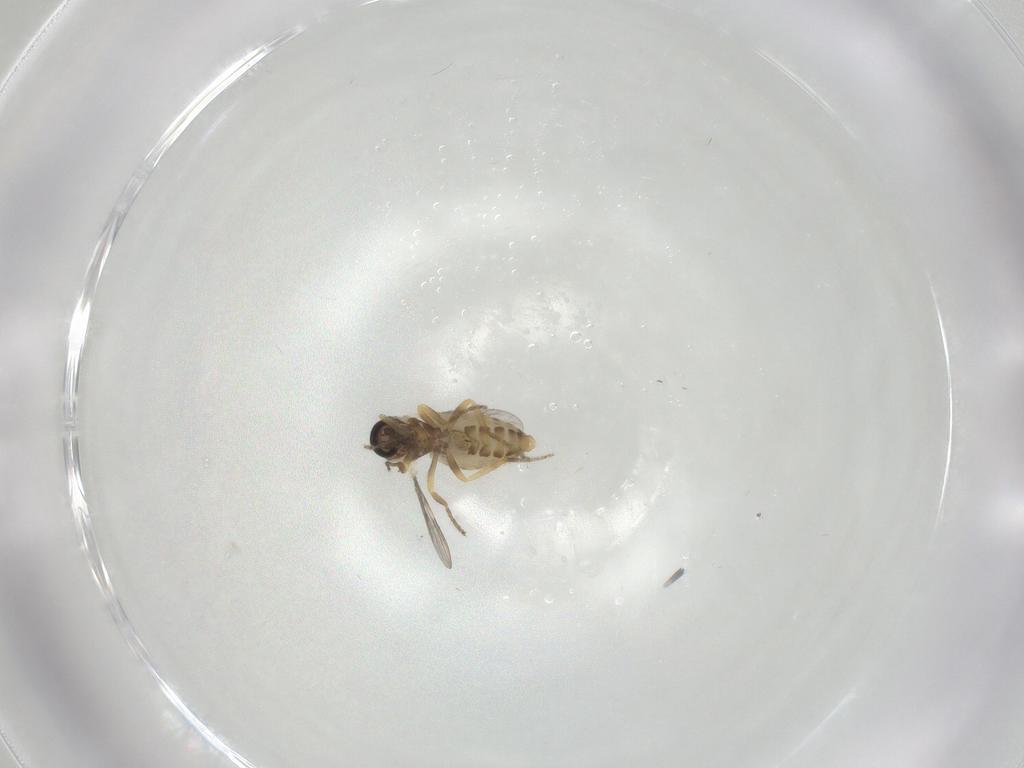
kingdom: Animalia
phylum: Arthropoda
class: Insecta
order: Diptera
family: Ceratopogonidae
